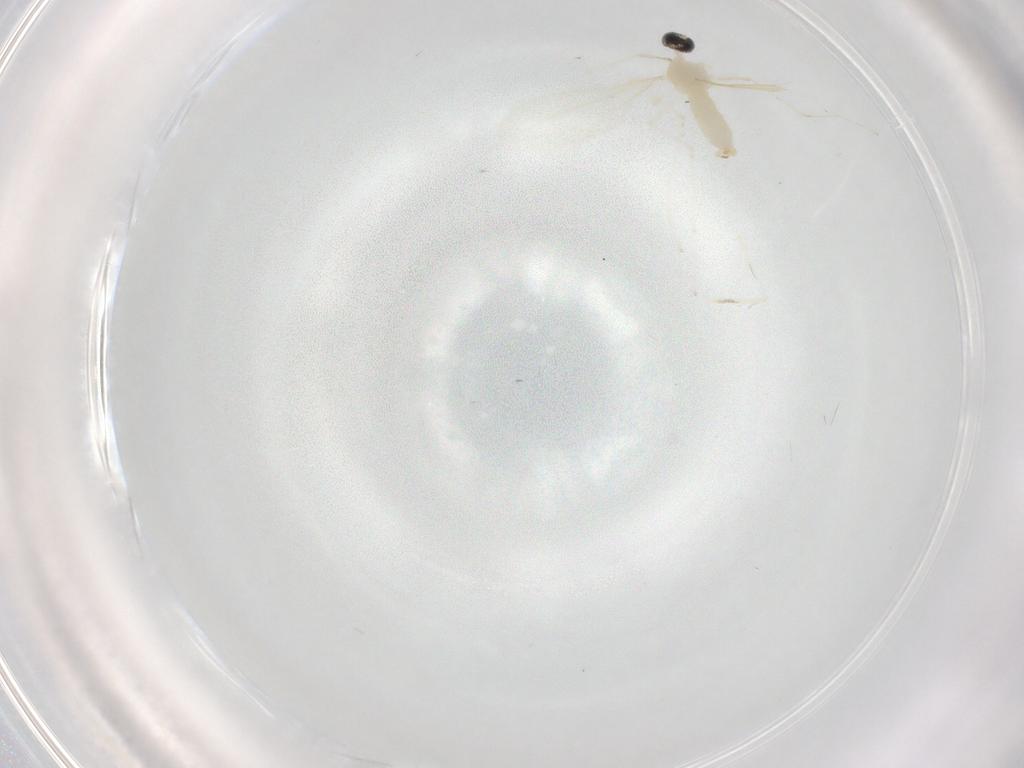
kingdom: Animalia
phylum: Arthropoda
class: Insecta
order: Diptera
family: Cecidomyiidae
